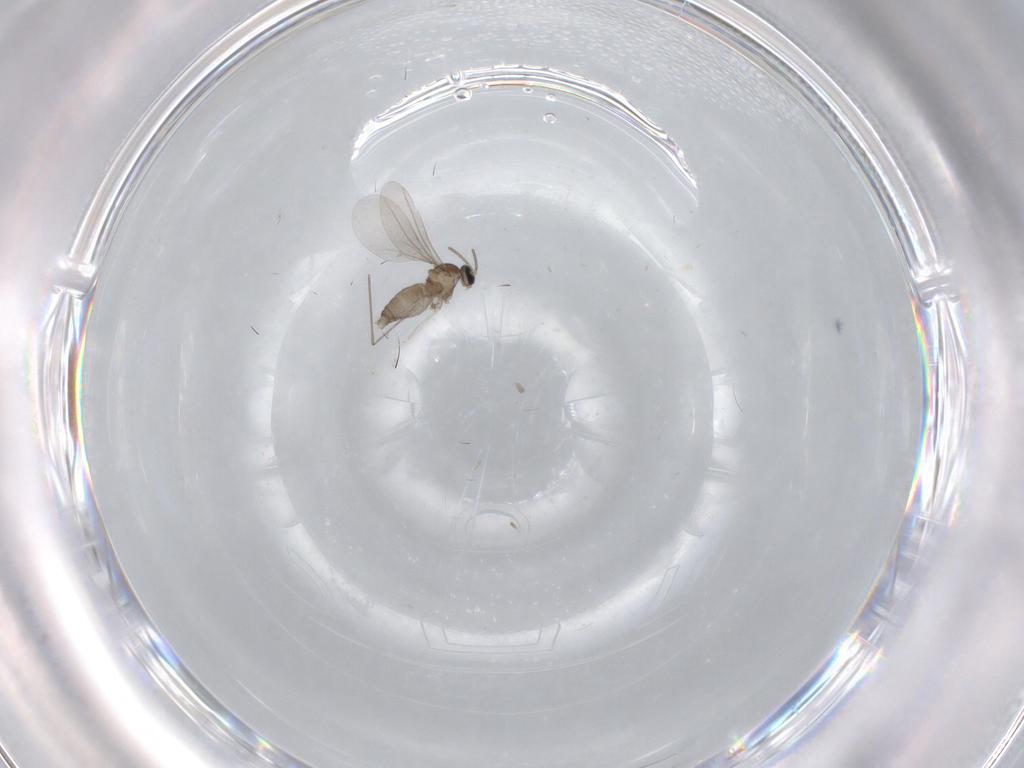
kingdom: Animalia
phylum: Arthropoda
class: Insecta
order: Diptera
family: Cecidomyiidae
